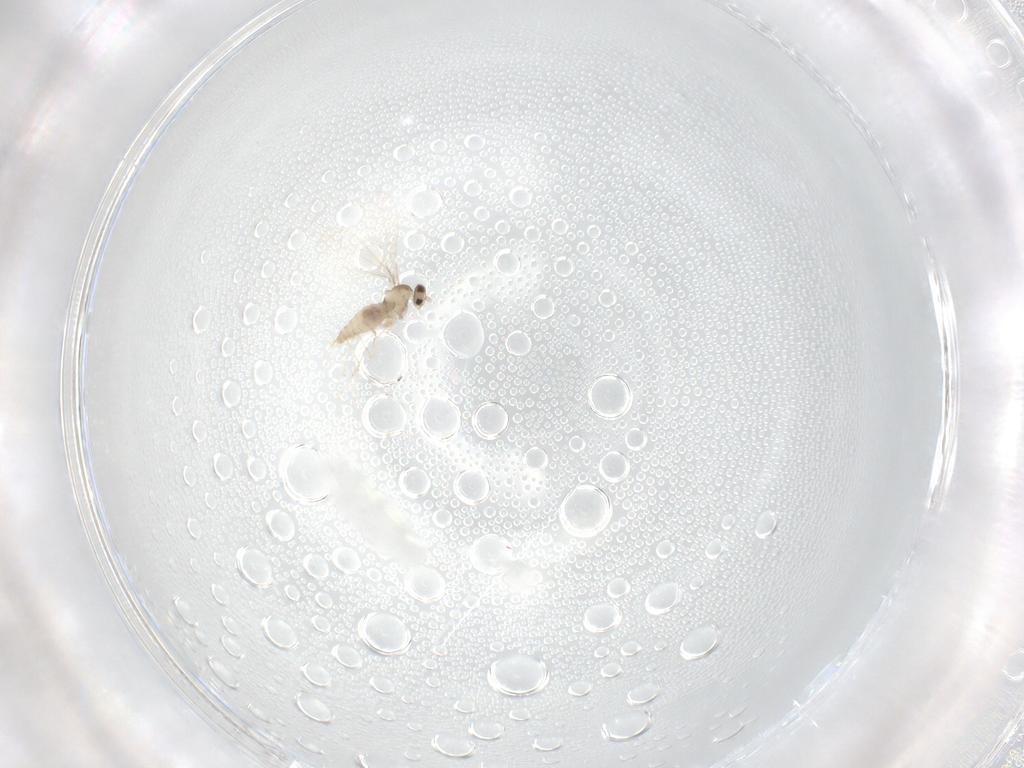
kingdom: Animalia
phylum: Arthropoda
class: Insecta
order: Diptera
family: Cecidomyiidae
